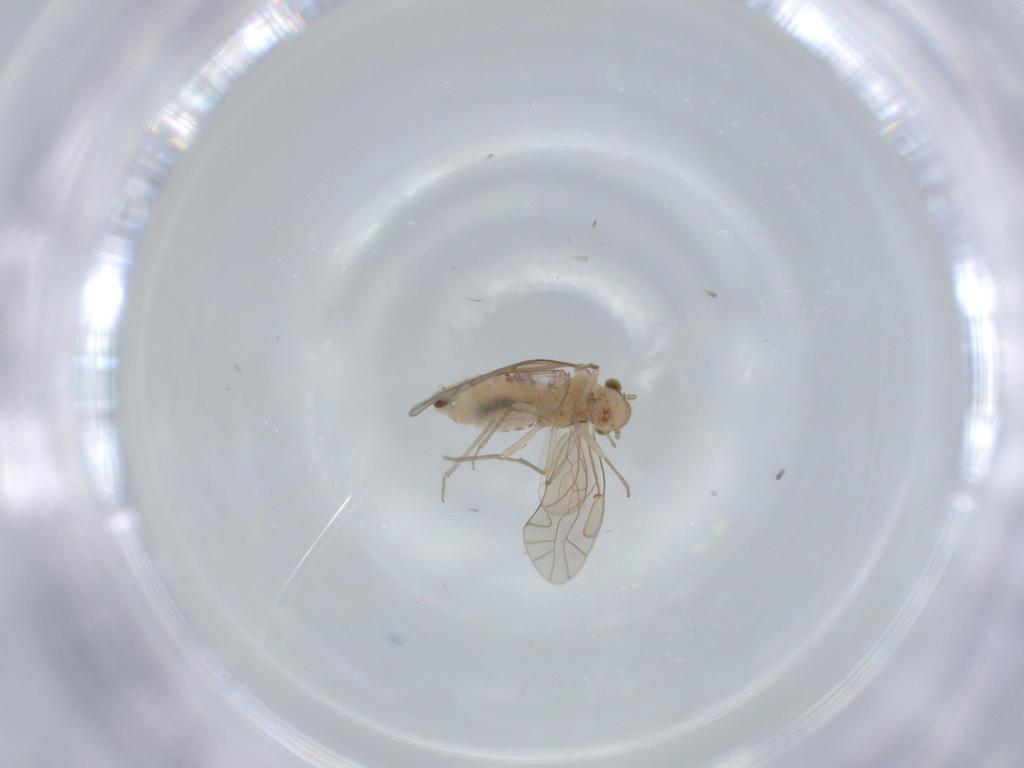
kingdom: Animalia
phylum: Arthropoda
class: Insecta
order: Psocodea
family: Lachesillidae
